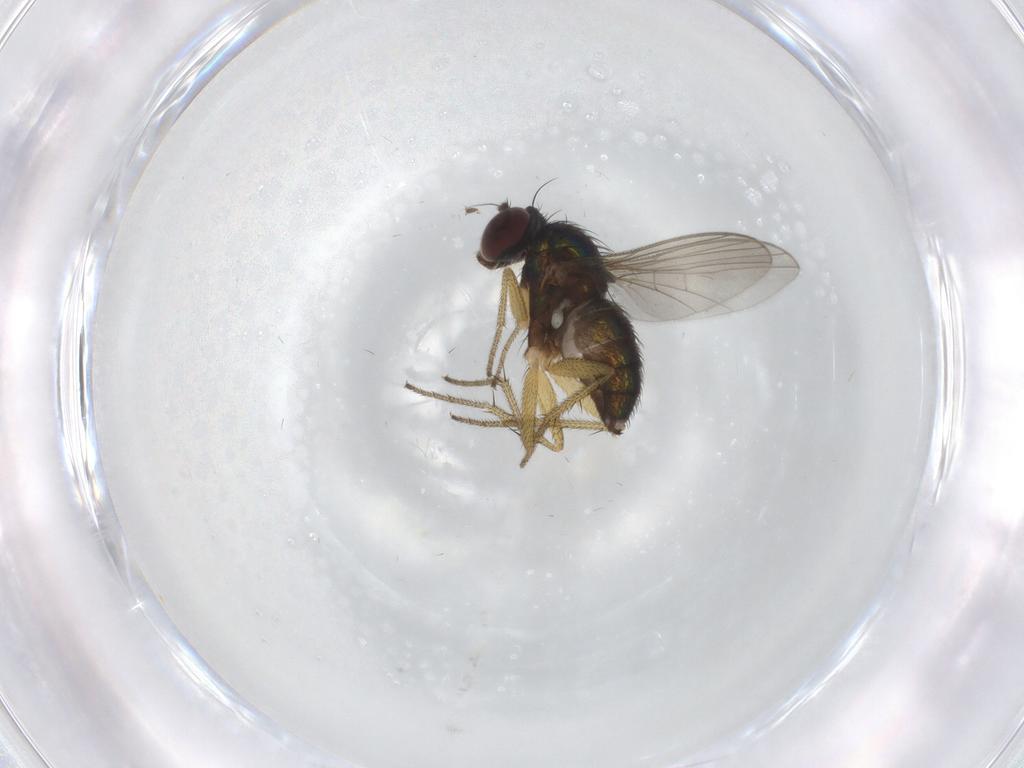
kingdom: Animalia
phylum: Arthropoda
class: Insecta
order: Diptera
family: Dolichopodidae
